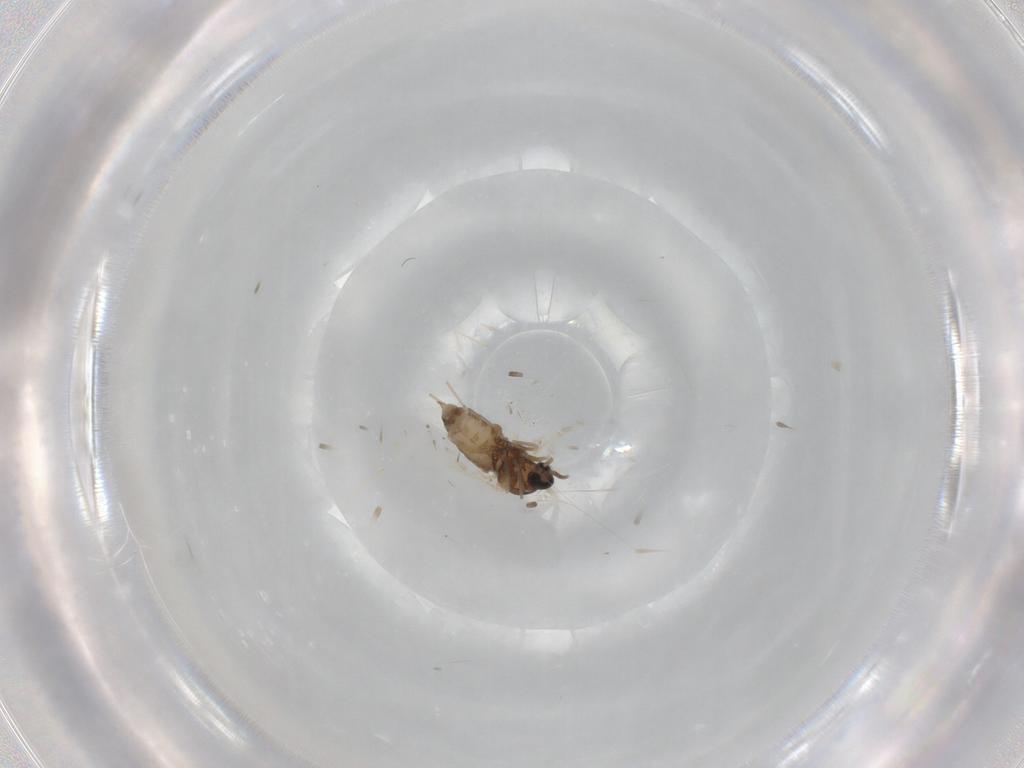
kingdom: Animalia
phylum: Arthropoda
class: Insecta
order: Diptera
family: Cecidomyiidae
